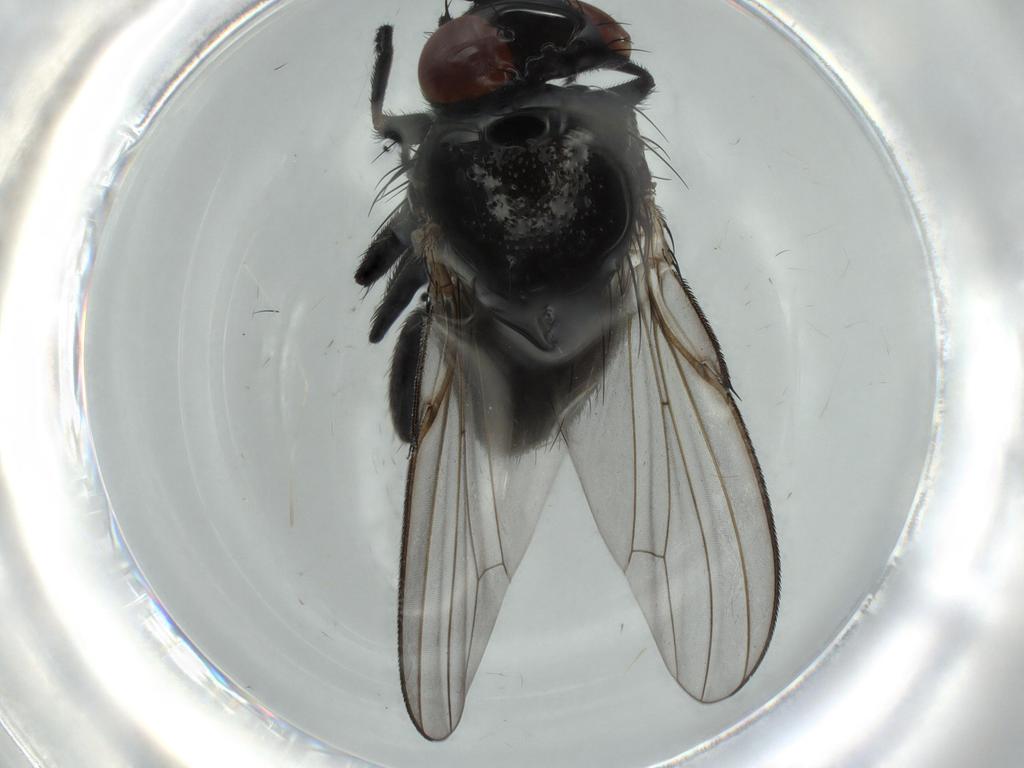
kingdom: Animalia
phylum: Arthropoda
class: Insecta
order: Diptera
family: Milichiidae
